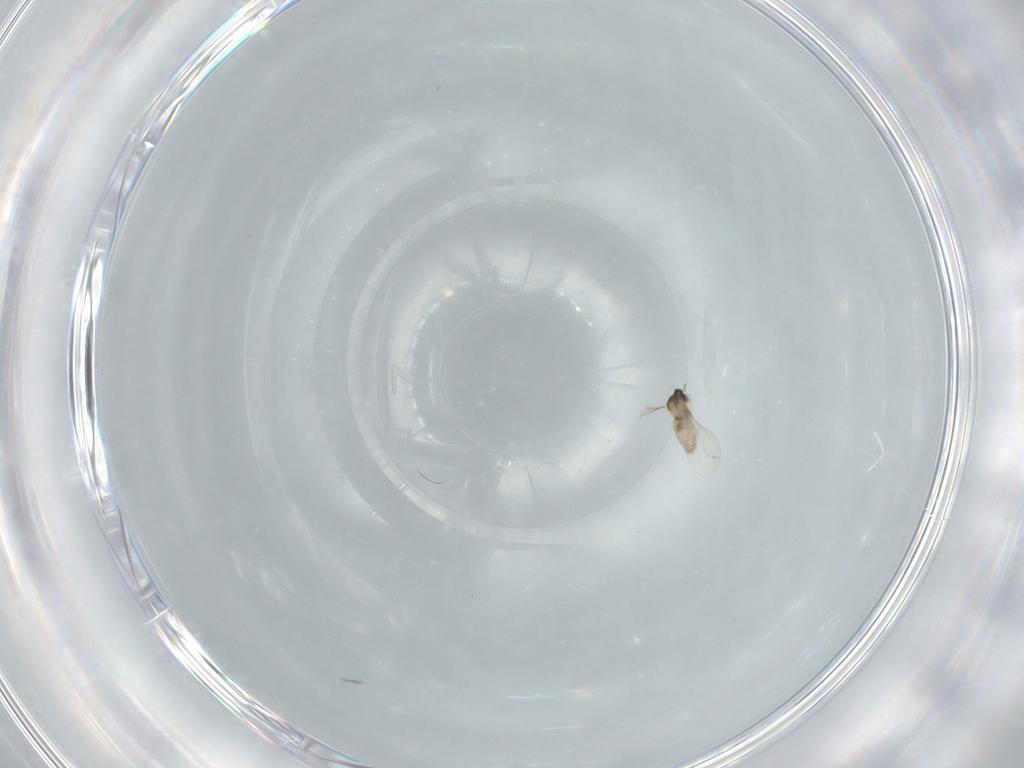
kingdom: Animalia
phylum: Arthropoda
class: Insecta
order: Diptera
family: Cecidomyiidae
